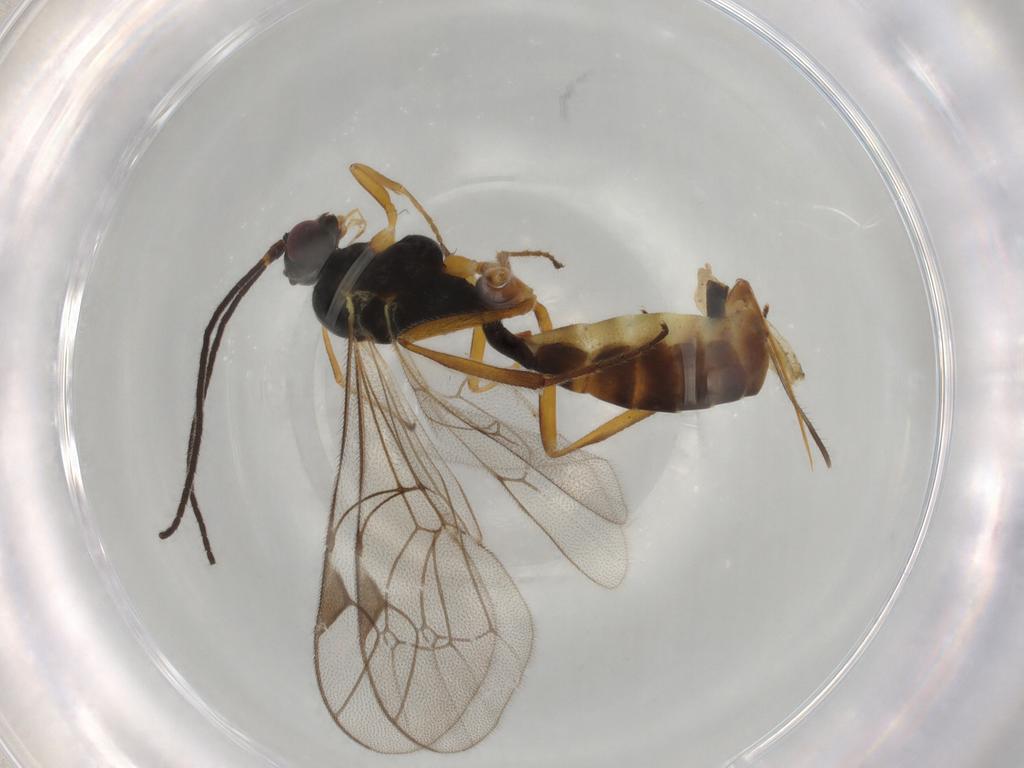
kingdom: Animalia
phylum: Arthropoda
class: Insecta
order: Hymenoptera
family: Ichneumonidae
